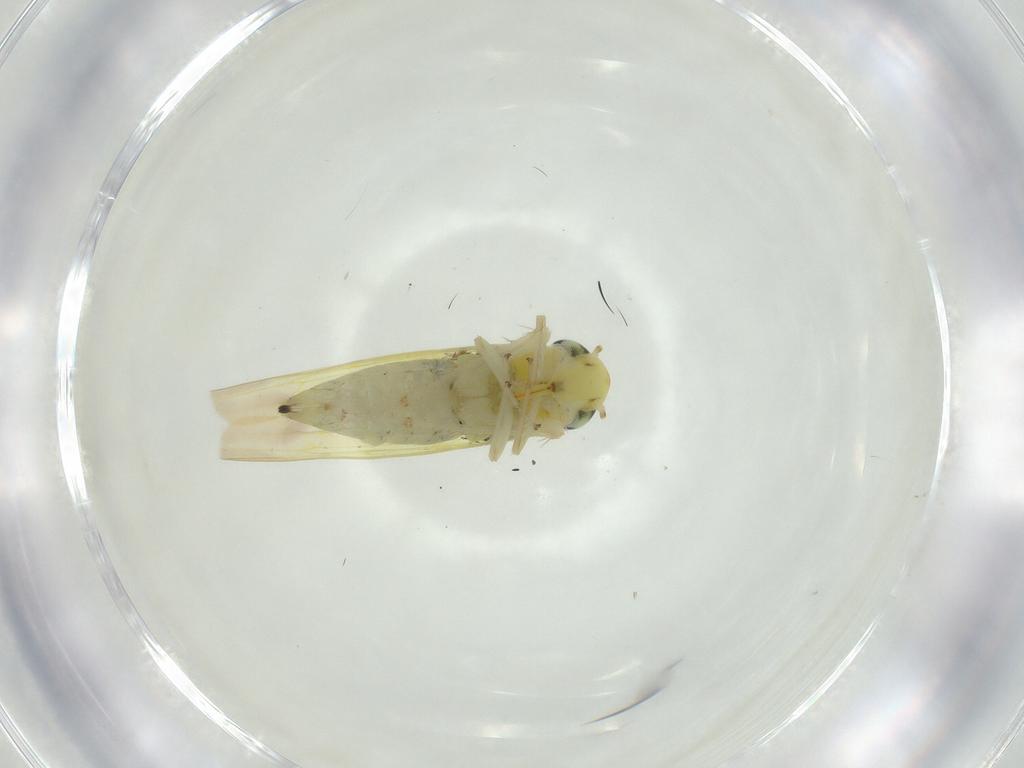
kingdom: Animalia
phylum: Arthropoda
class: Insecta
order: Hemiptera
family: Cicadellidae
